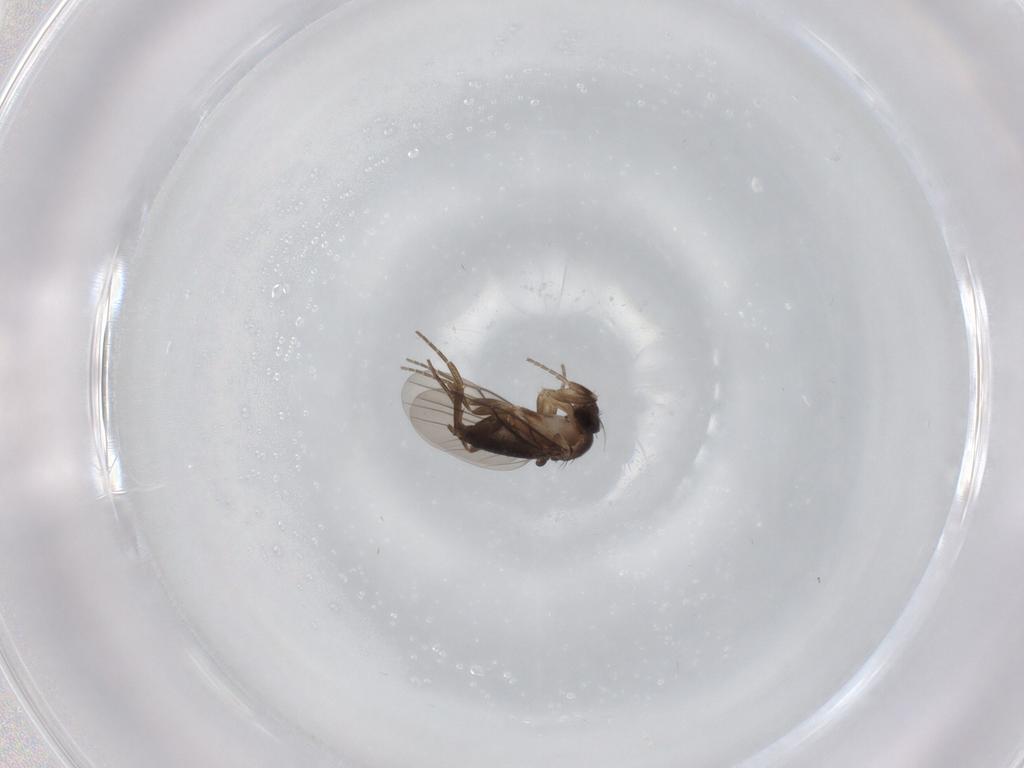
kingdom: Animalia
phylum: Arthropoda
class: Insecta
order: Diptera
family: Phoridae
